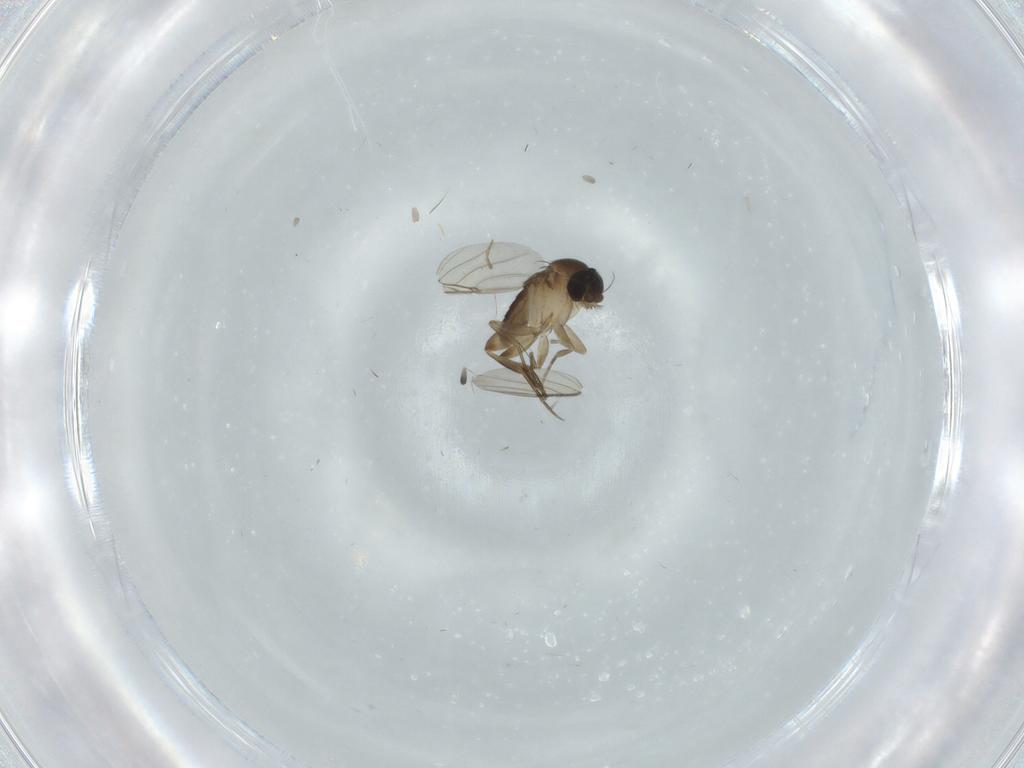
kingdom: Animalia
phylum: Arthropoda
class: Insecta
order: Diptera
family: Phoridae
